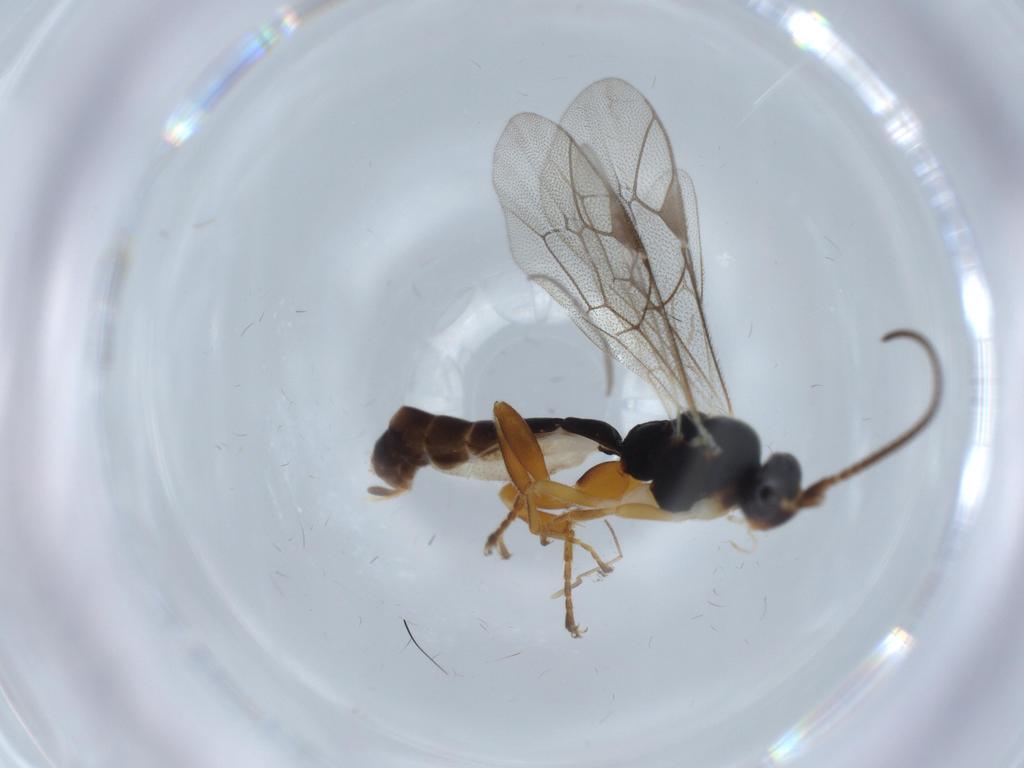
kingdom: Animalia
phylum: Arthropoda
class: Insecta
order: Hymenoptera
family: Ichneumonidae
